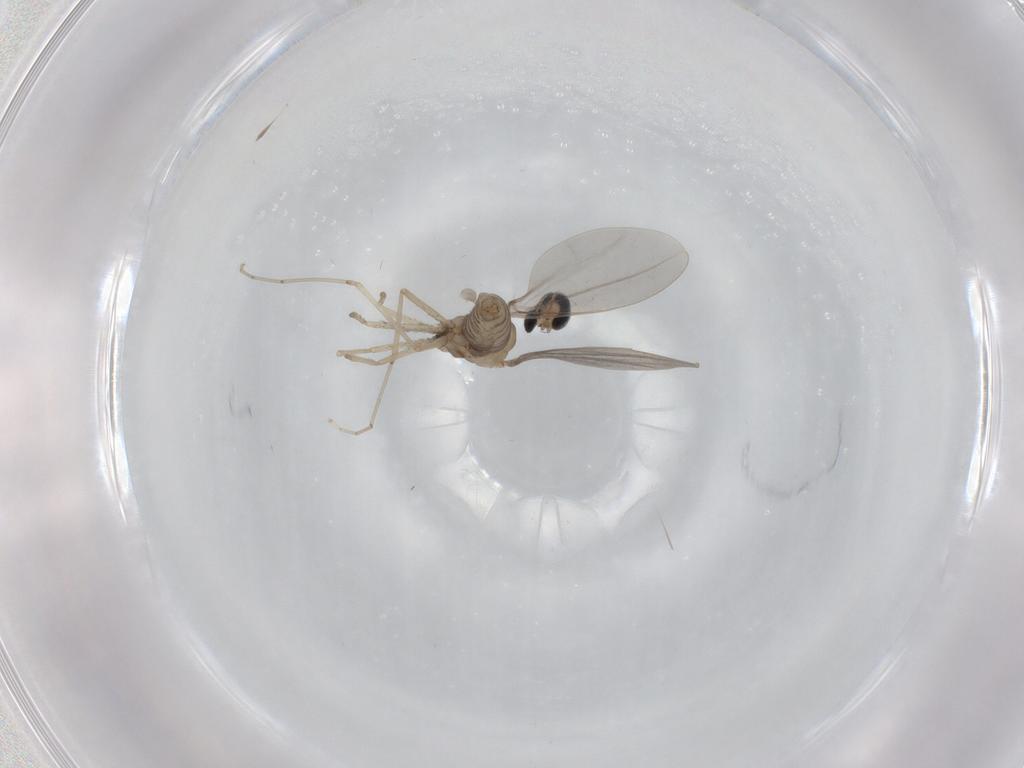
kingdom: Animalia
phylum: Arthropoda
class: Insecta
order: Diptera
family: Cecidomyiidae
